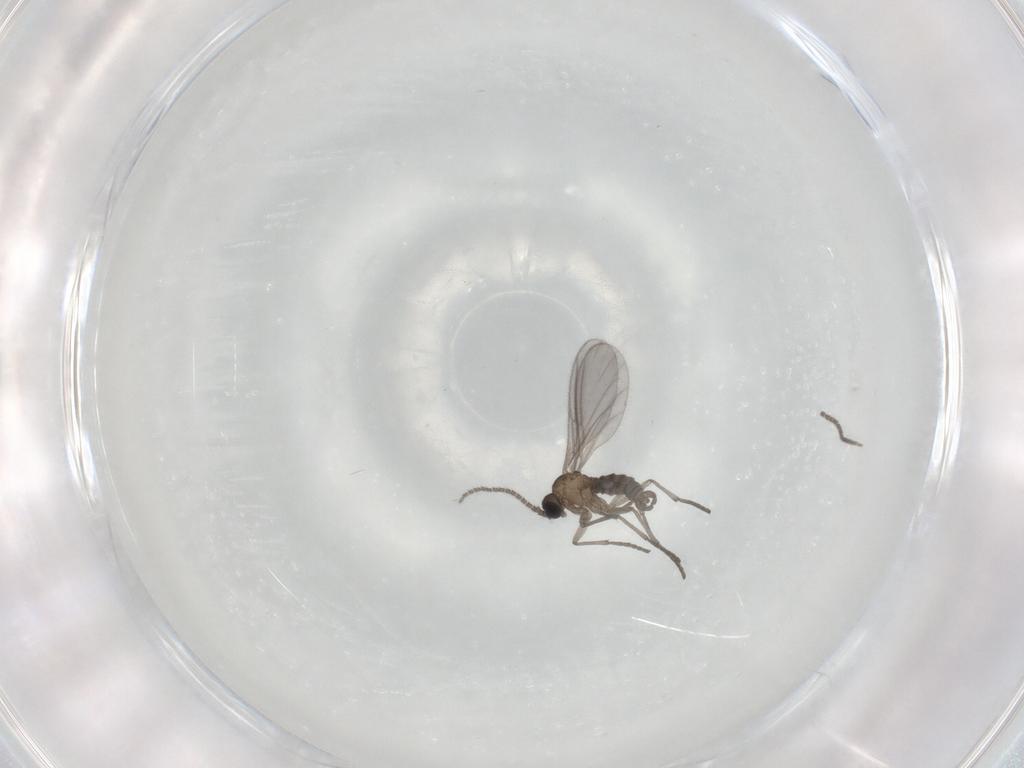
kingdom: Animalia
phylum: Arthropoda
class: Insecta
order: Diptera
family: Sciaridae
